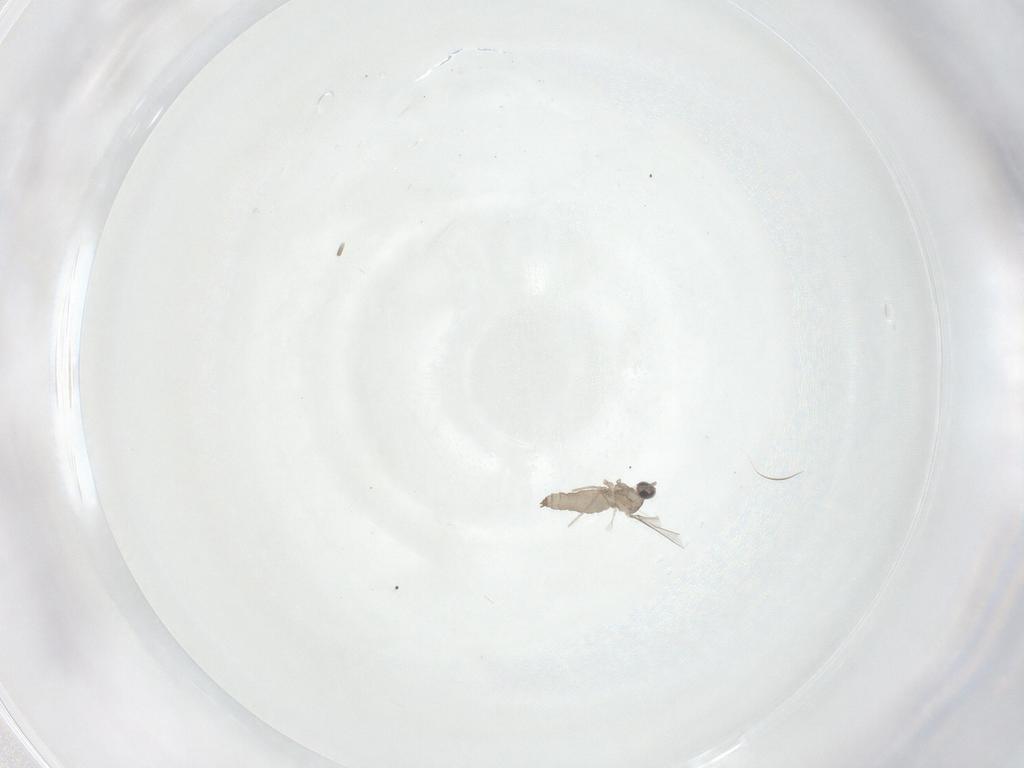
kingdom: Animalia
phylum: Arthropoda
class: Insecta
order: Diptera
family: Dolichopodidae
